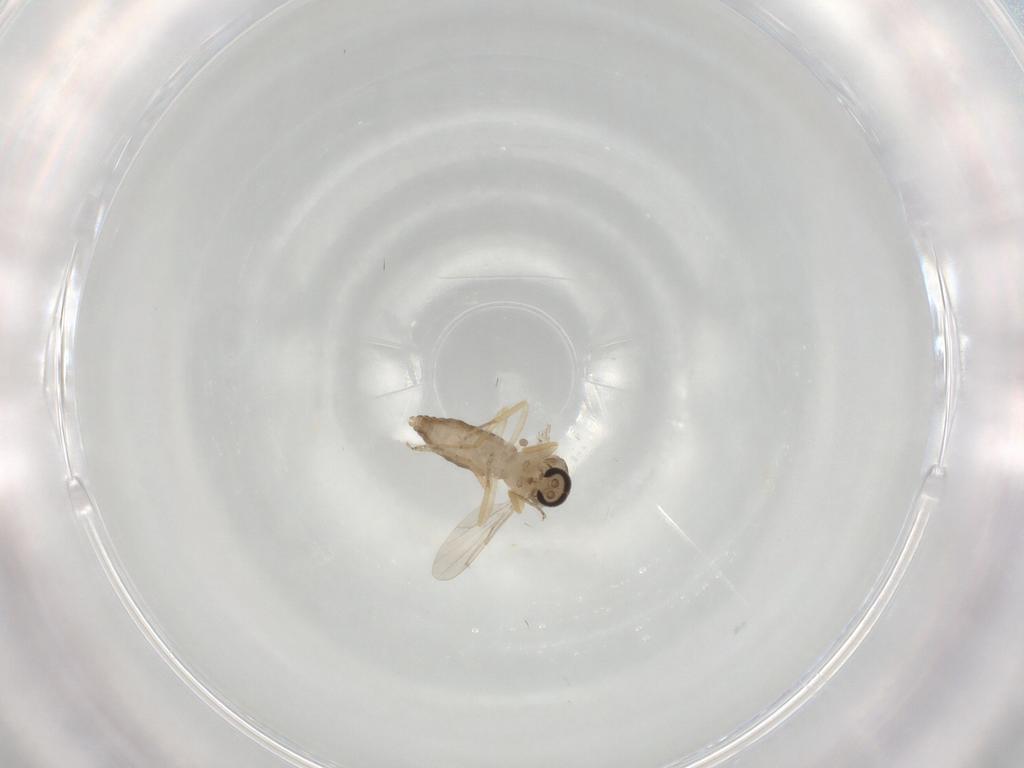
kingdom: Animalia
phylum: Arthropoda
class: Insecta
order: Diptera
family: Ceratopogonidae
